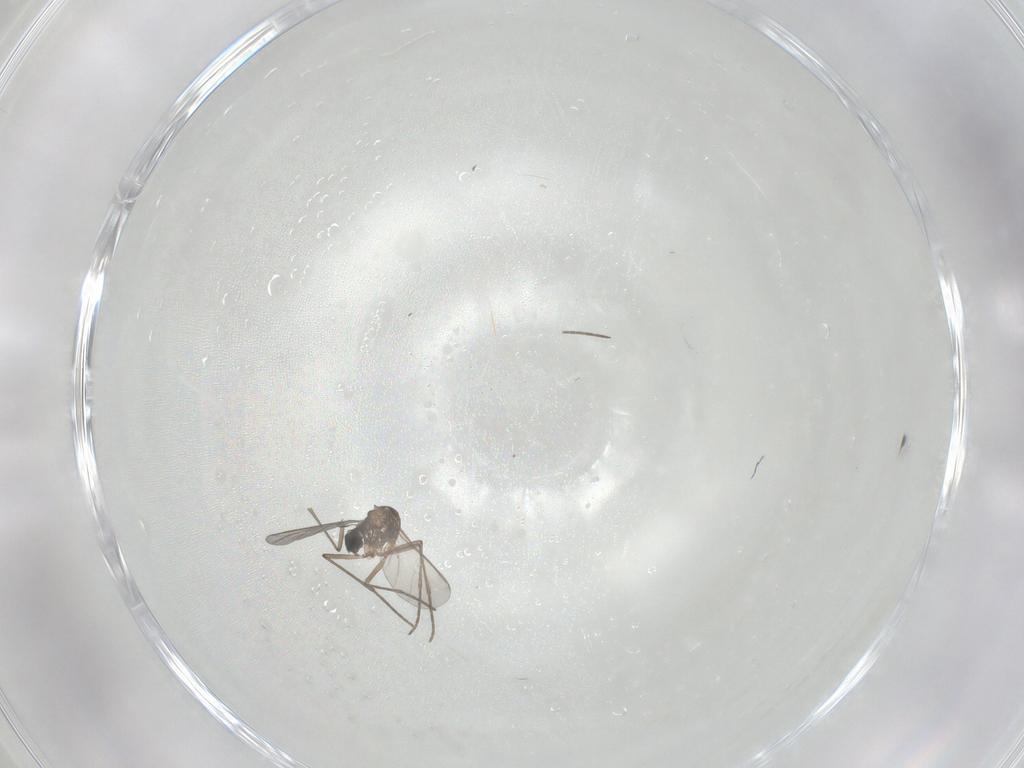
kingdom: Animalia
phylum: Arthropoda
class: Insecta
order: Diptera
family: Sciaridae
